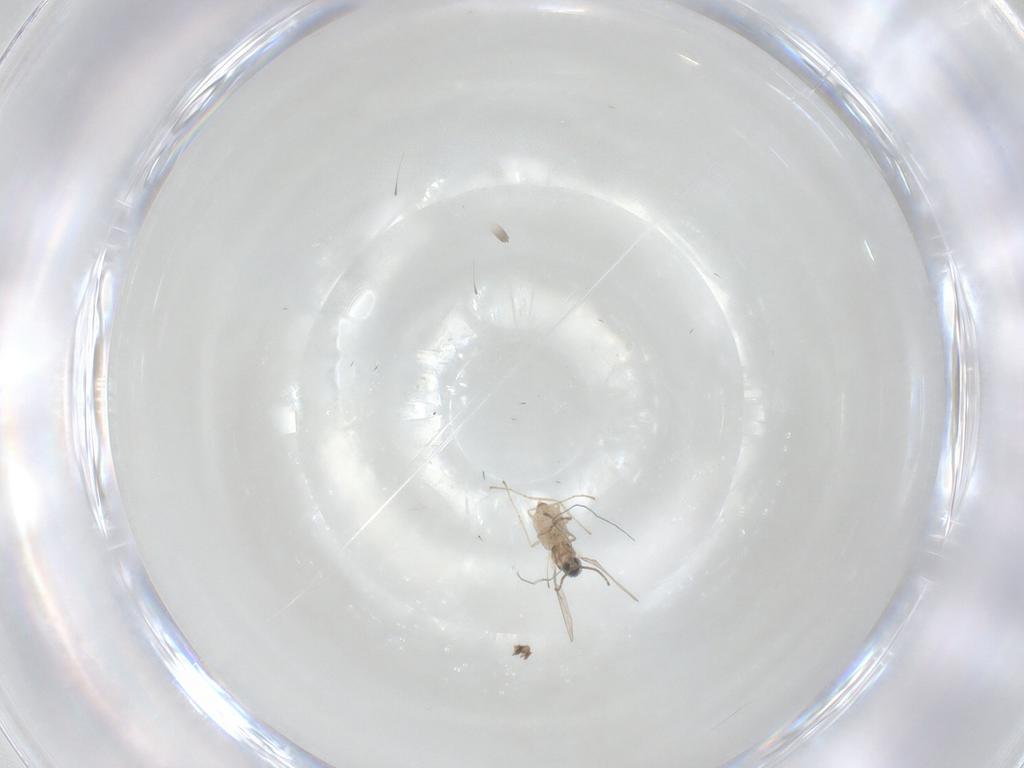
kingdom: Animalia
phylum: Arthropoda
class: Insecta
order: Diptera
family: Cecidomyiidae
